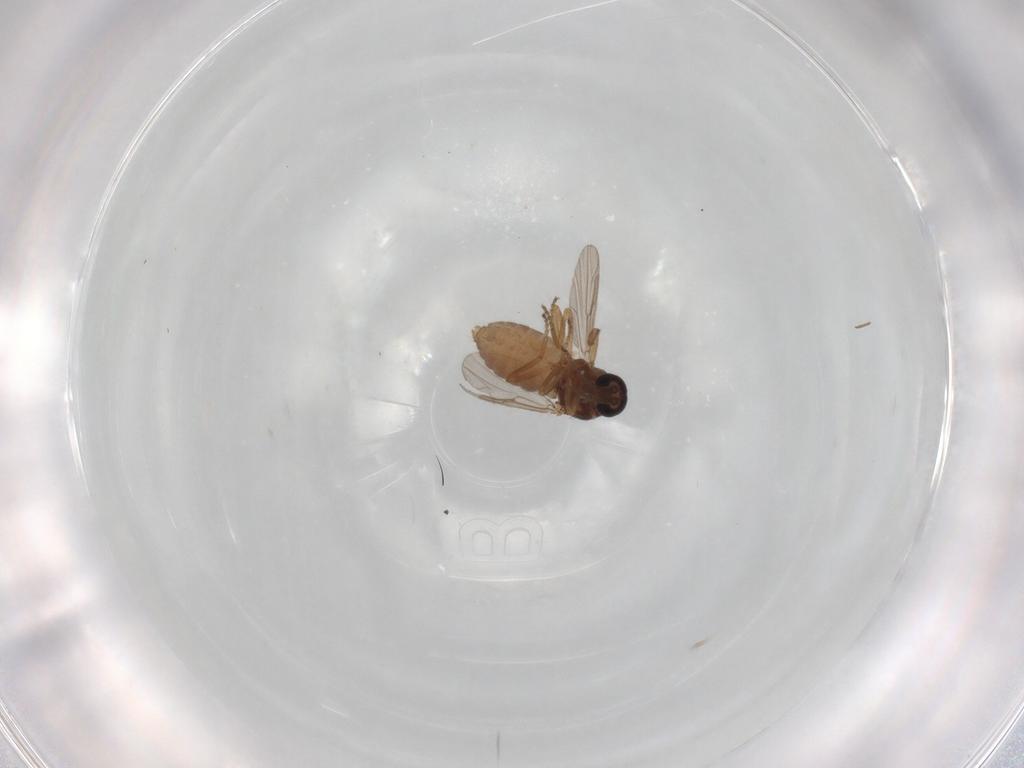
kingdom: Animalia
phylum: Arthropoda
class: Insecta
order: Diptera
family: Ceratopogonidae
